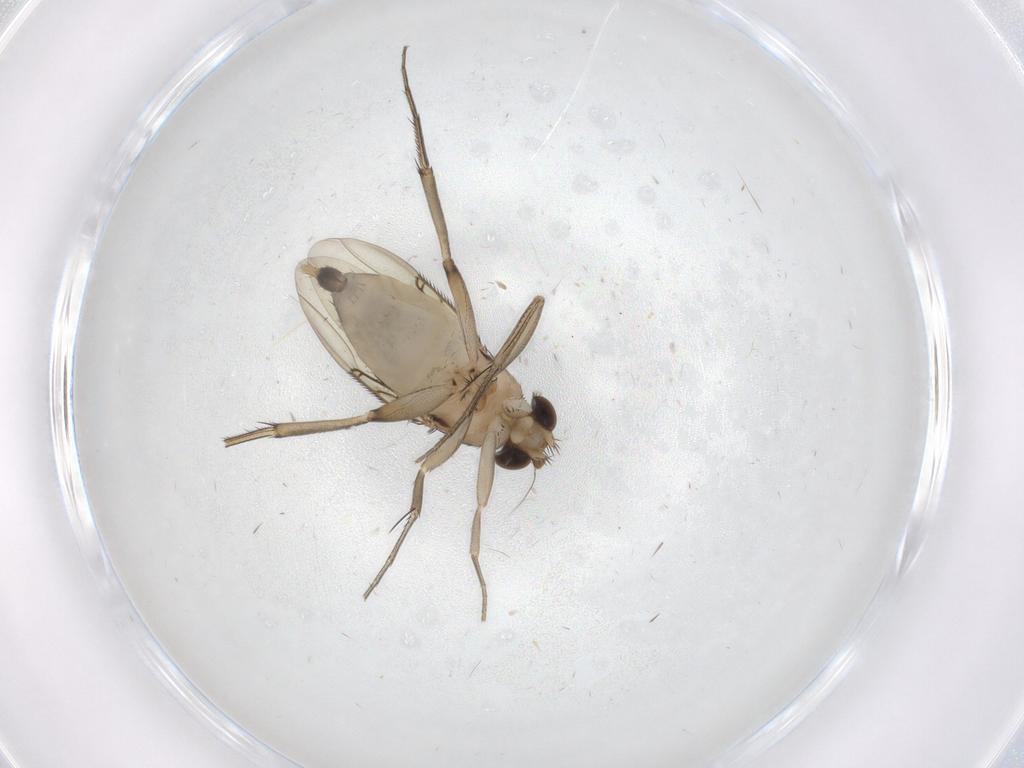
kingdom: Animalia
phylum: Arthropoda
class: Insecta
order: Diptera
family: Phoridae
